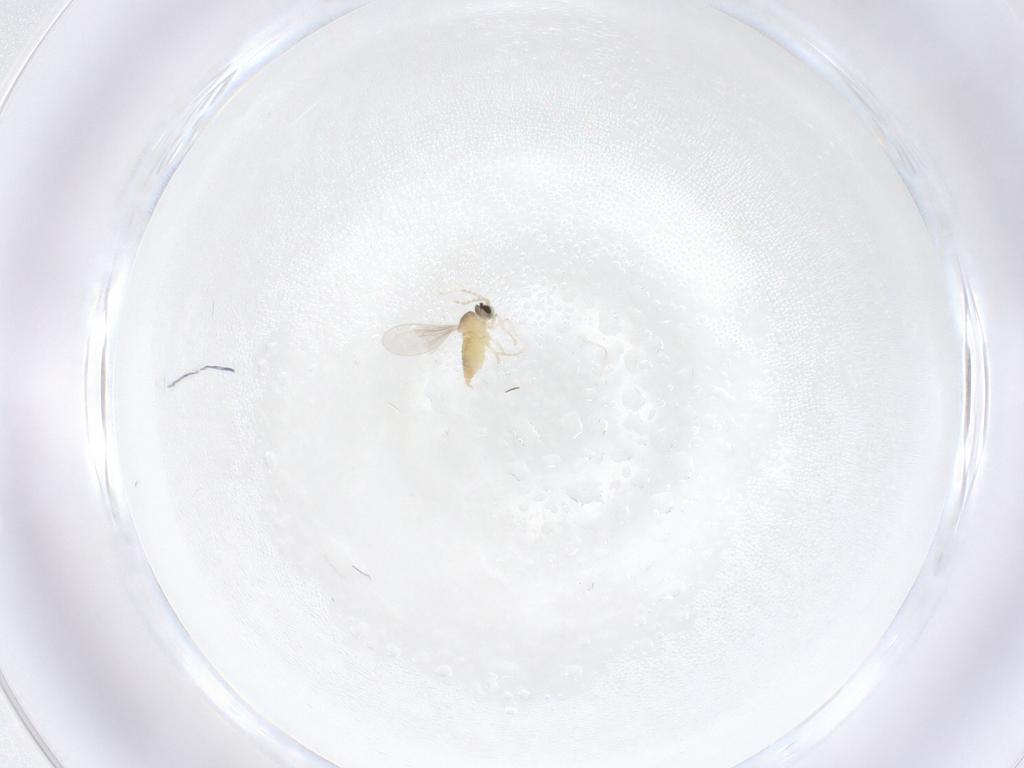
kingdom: Animalia
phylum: Arthropoda
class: Insecta
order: Diptera
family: Cecidomyiidae
